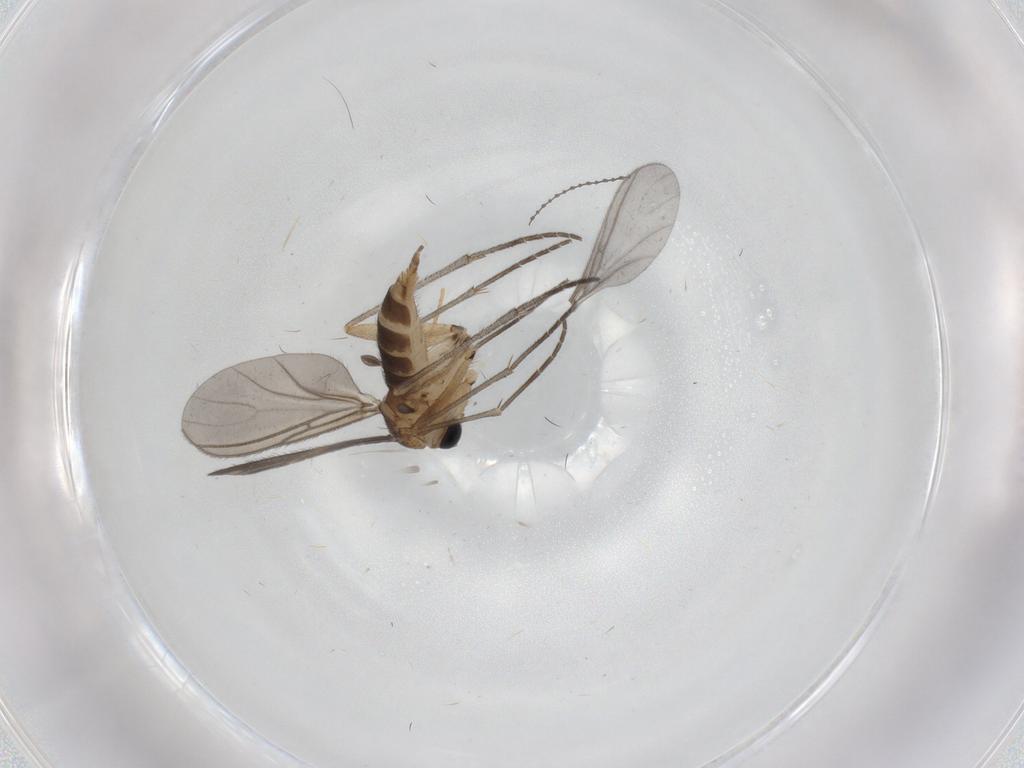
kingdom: Animalia
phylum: Arthropoda
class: Insecta
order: Diptera
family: Sciaridae
